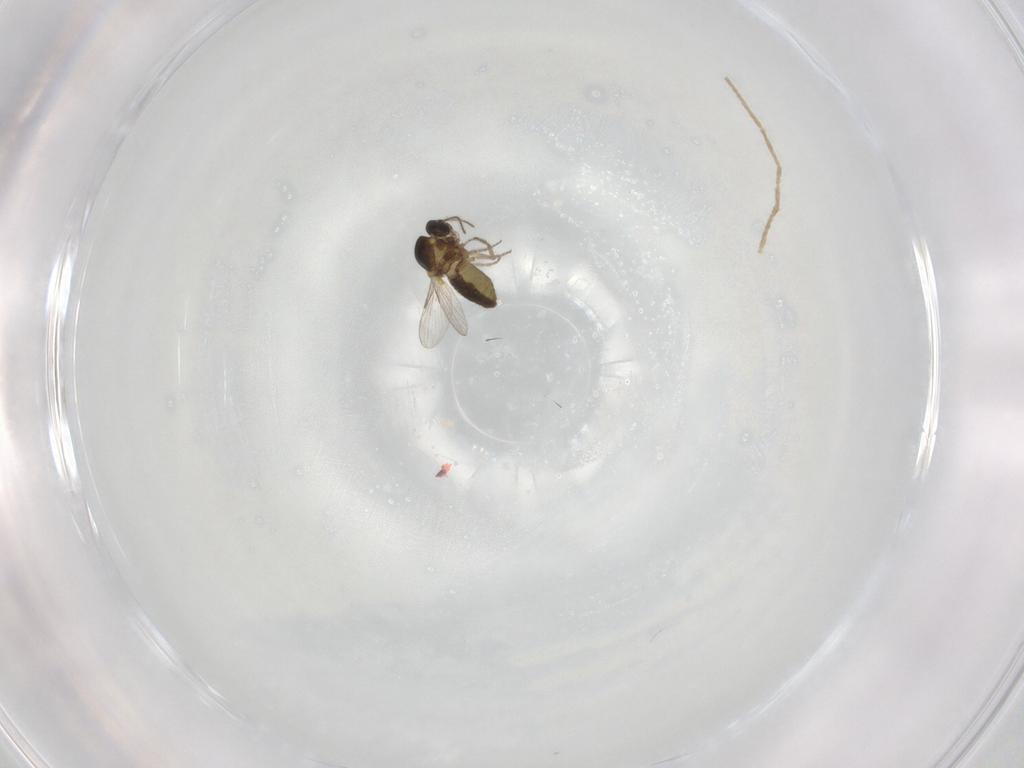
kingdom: Animalia
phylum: Arthropoda
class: Insecta
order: Diptera
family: Ceratopogonidae
